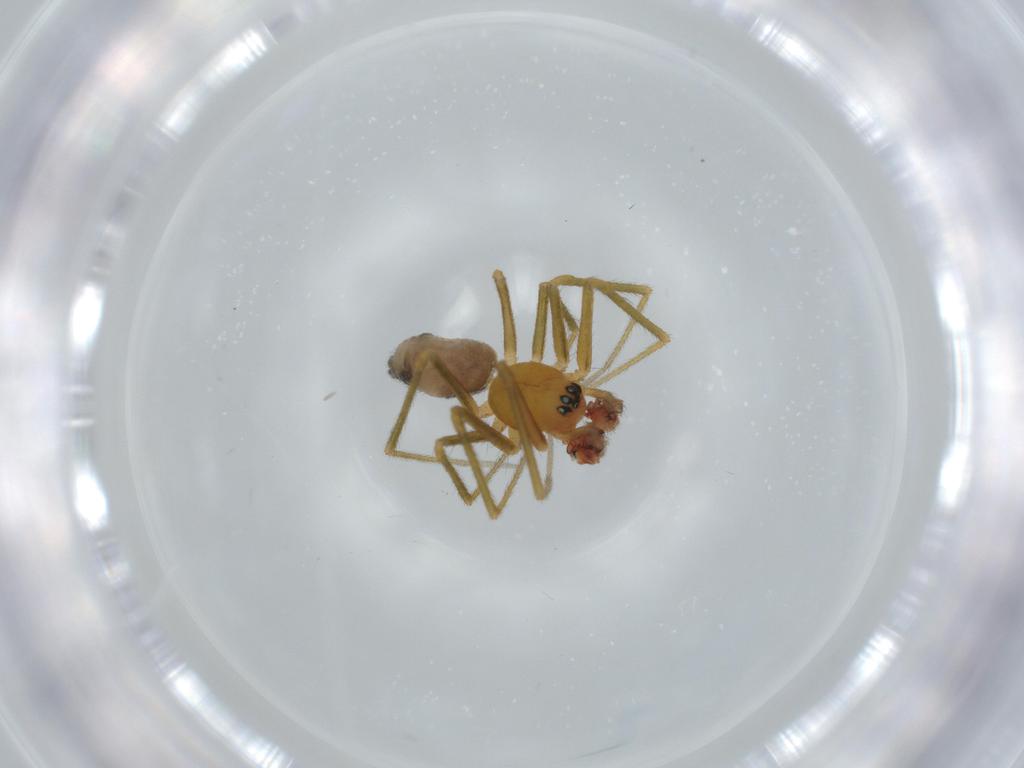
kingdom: Animalia
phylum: Arthropoda
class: Arachnida
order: Araneae
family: Linyphiidae
